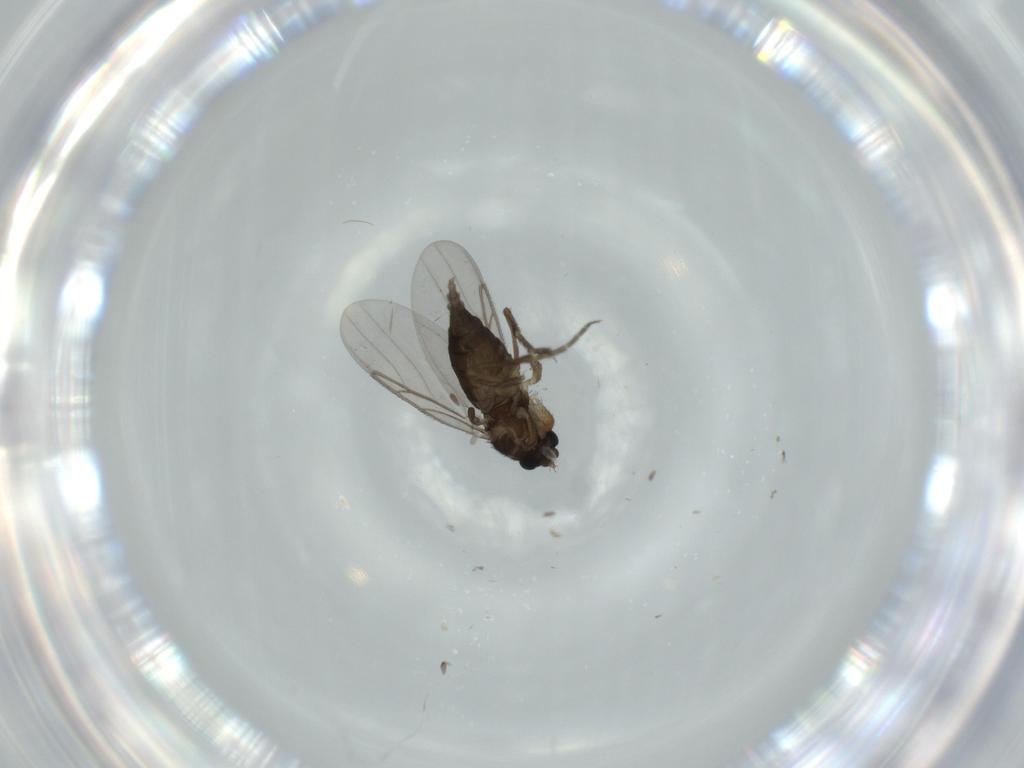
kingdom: Animalia
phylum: Arthropoda
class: Insecta
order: Diptera
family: Phoridae
